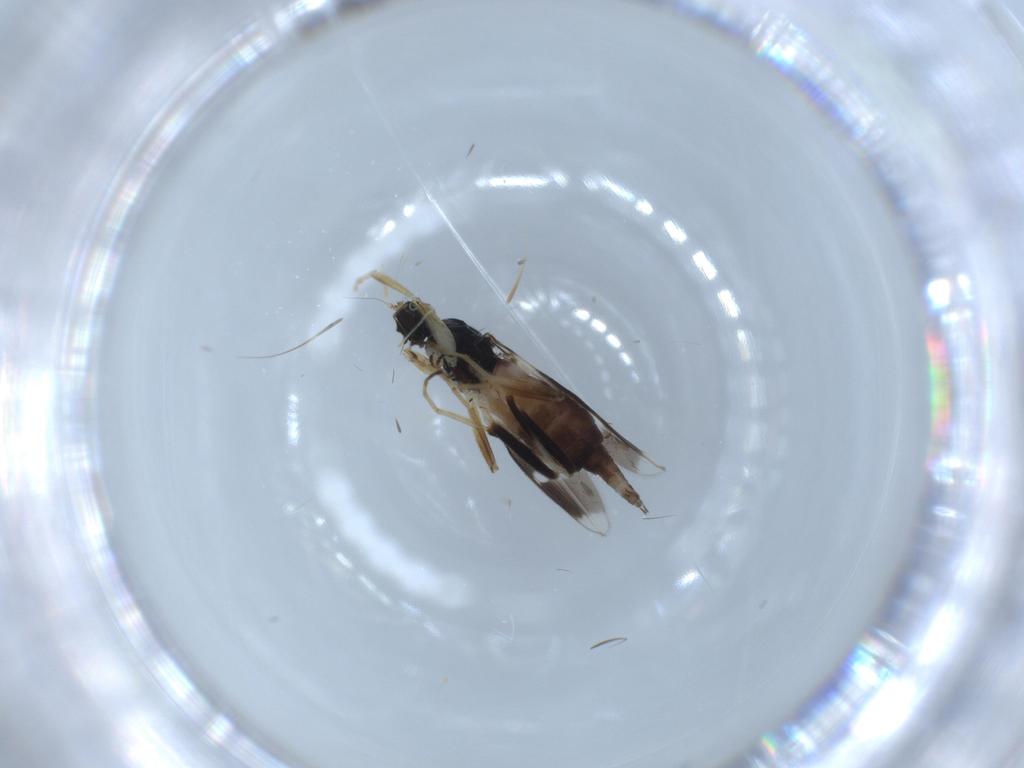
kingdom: Animalia
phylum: Arthropoda
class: Insecta
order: Diptera
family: Hybotidae
